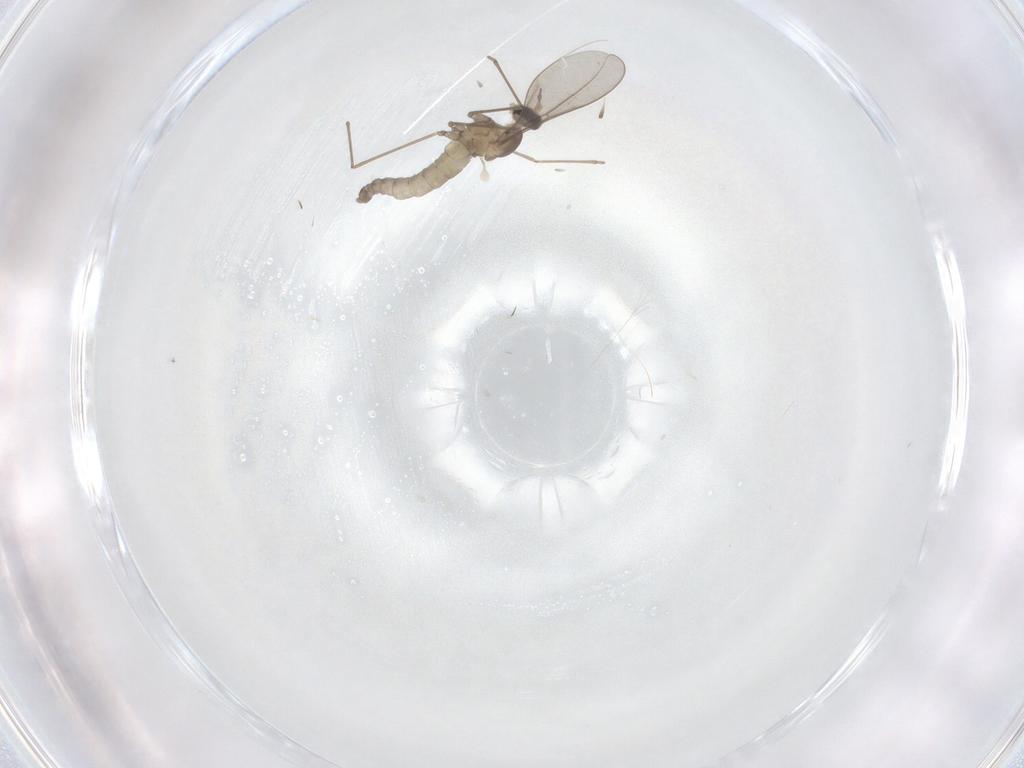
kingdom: Animalia
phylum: Arthropoda
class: Insecta
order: Diptera
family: Cecidomyiidae
